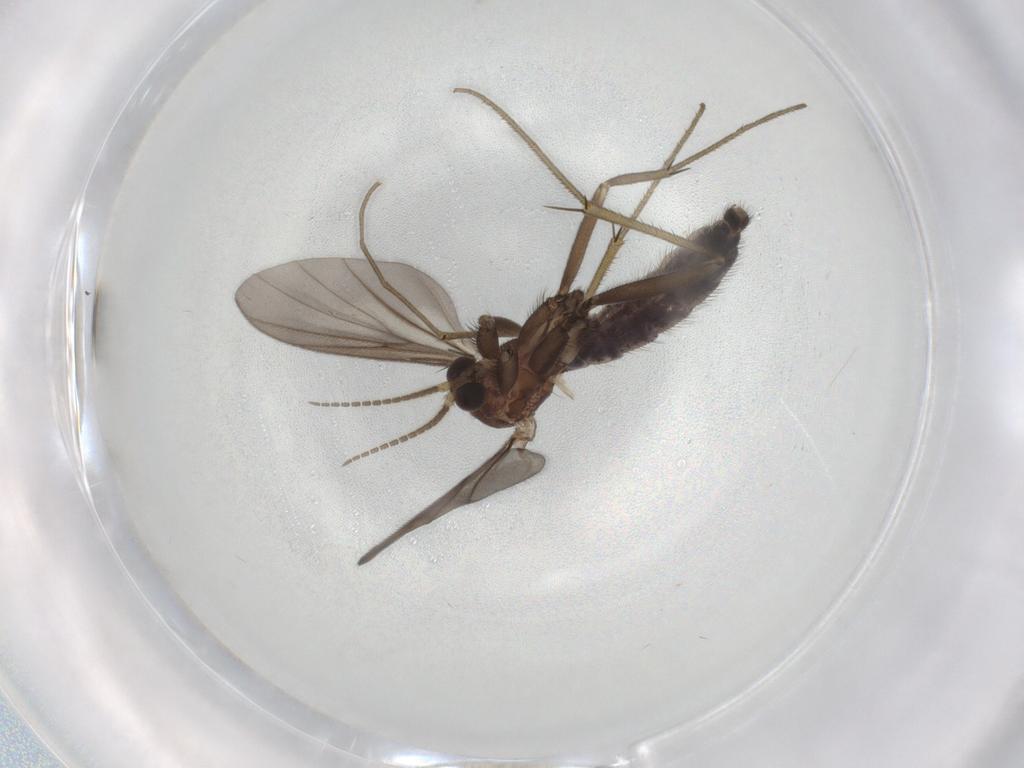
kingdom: Animalia
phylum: Arthropoda
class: Insecta
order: Diptera
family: Mycetophilidae
